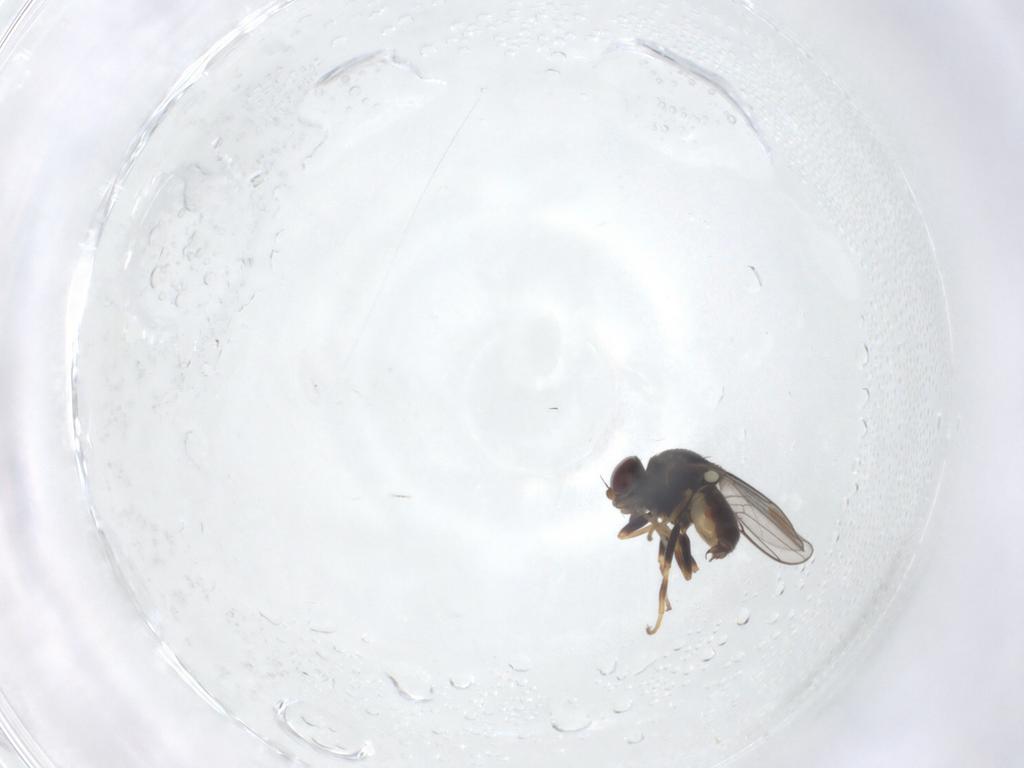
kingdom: Animalia
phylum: Arthropoda
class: Insecta
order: Diptera
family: Chloropidae
